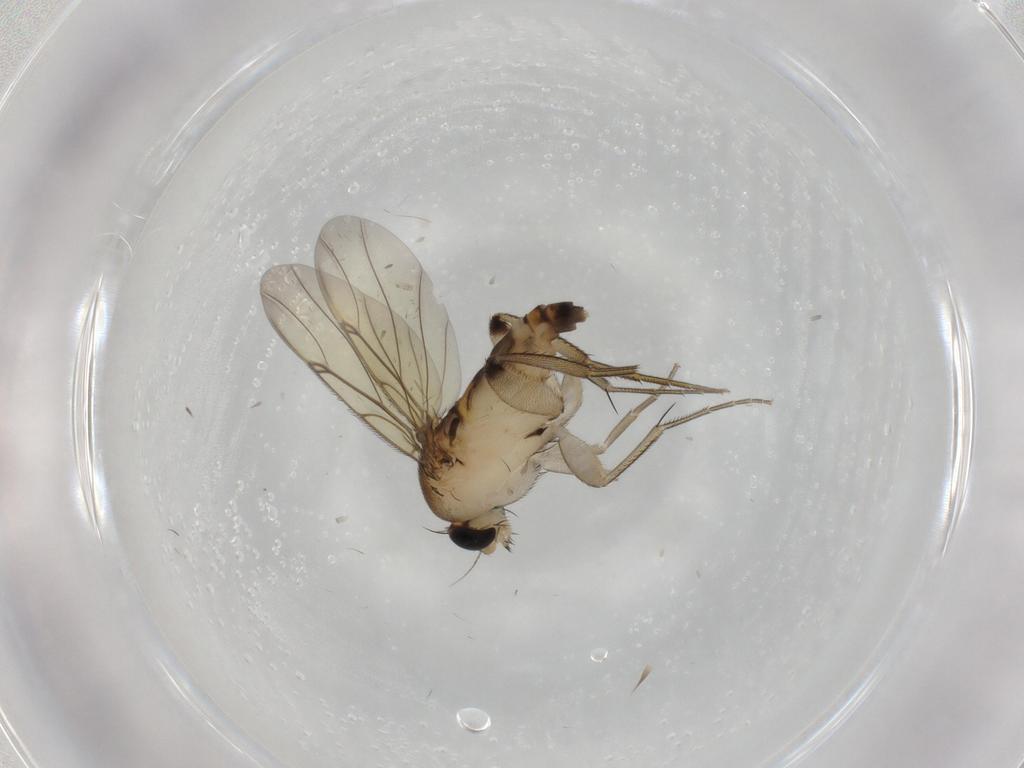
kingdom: Animalia
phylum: Arthropoda
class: Insecta
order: Diptera
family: Phoridae
